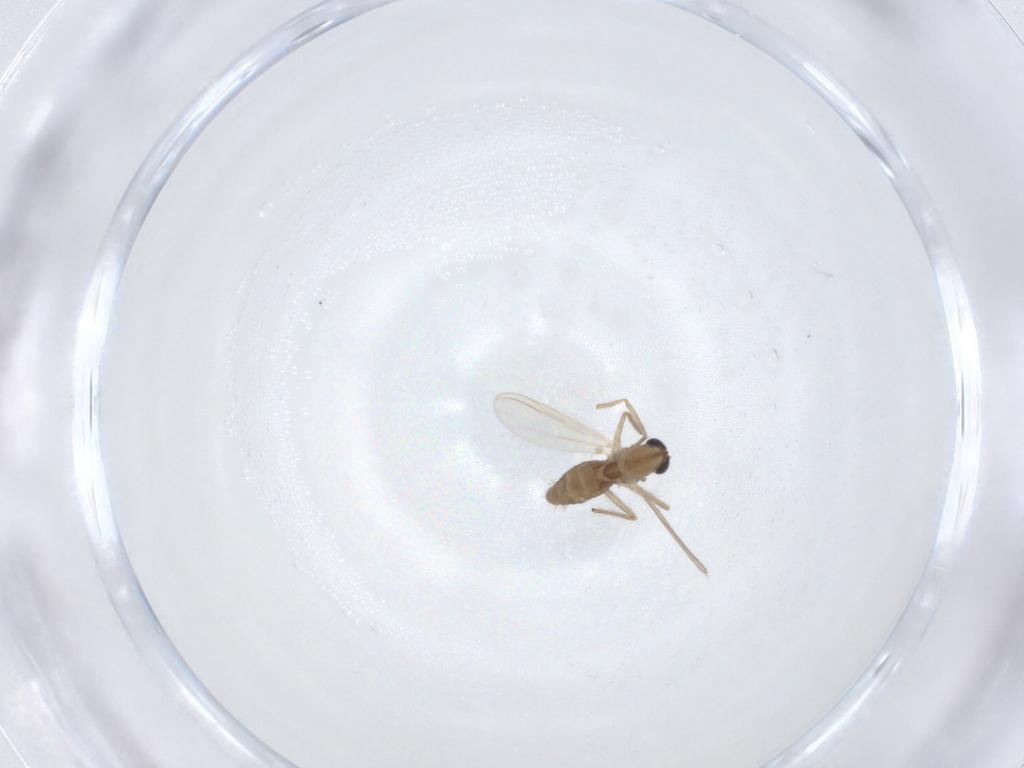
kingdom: Animalia
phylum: Arthropoda
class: Insecta
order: Diptera
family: Chironomidae
